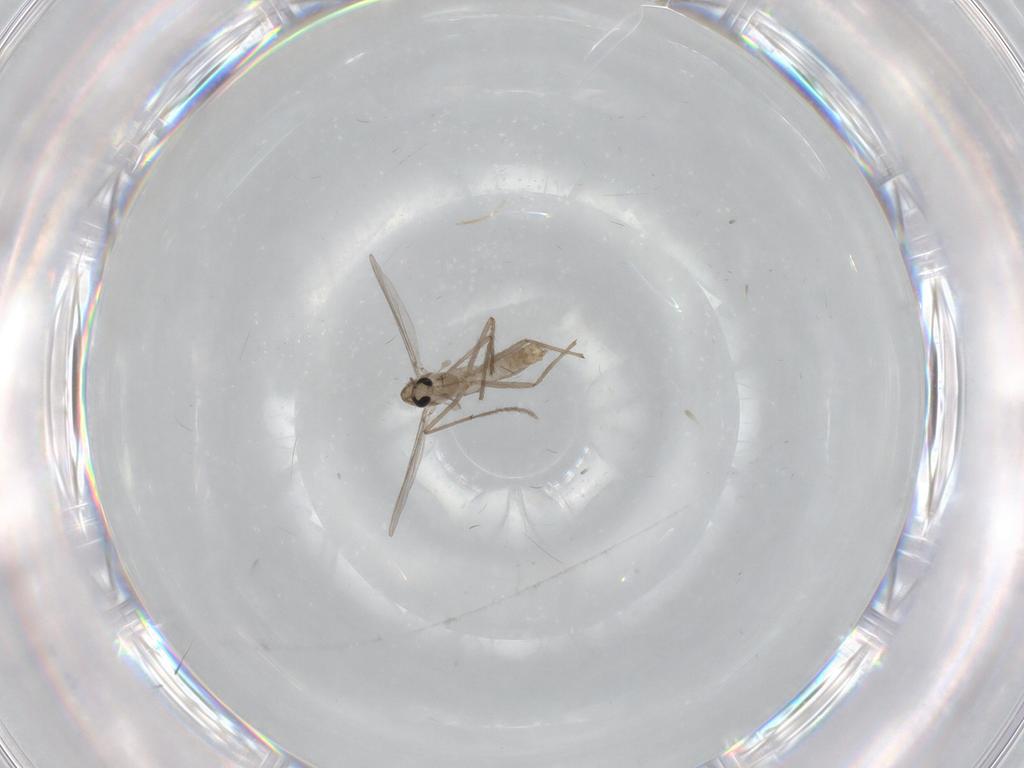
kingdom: Animalia
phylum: Arthropoda
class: Insecta
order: Diptera
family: Chironomidae
